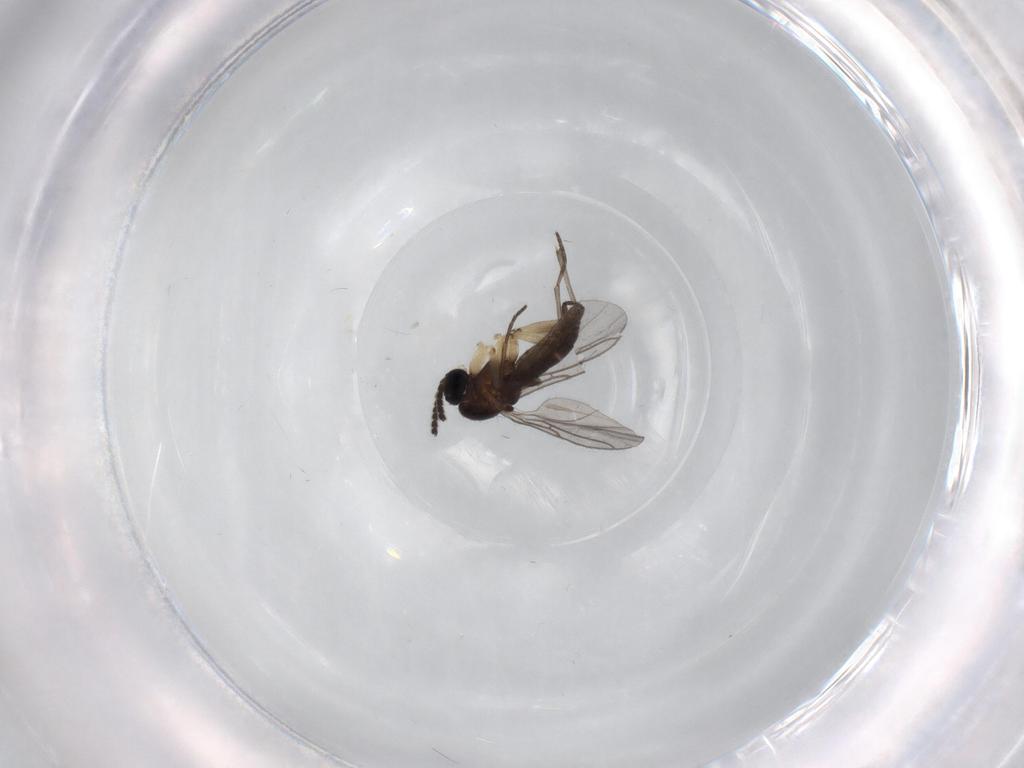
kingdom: Animalia
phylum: Arthropoda
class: Insecta
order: Diptera
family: Sciaridae
